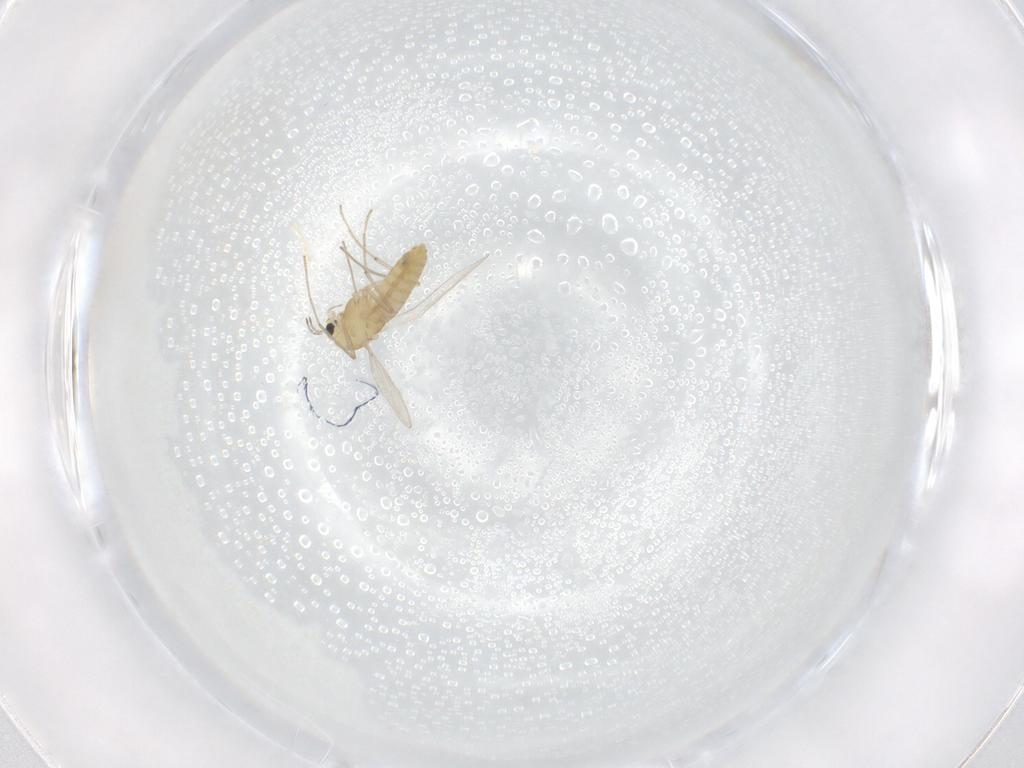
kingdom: Animalia
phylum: Arthropoda
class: Insecta
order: Diptera
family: Chironomidae
